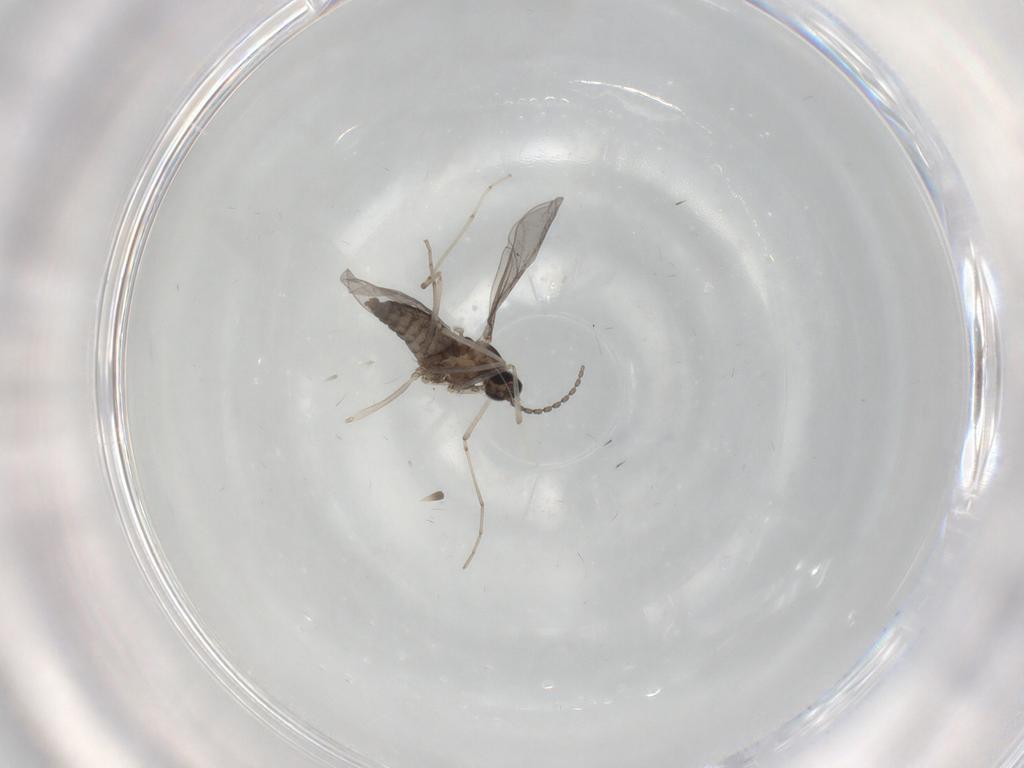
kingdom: Animalia
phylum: Arthropoda
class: Insecta
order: Diptera
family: Cecidomyiidae
